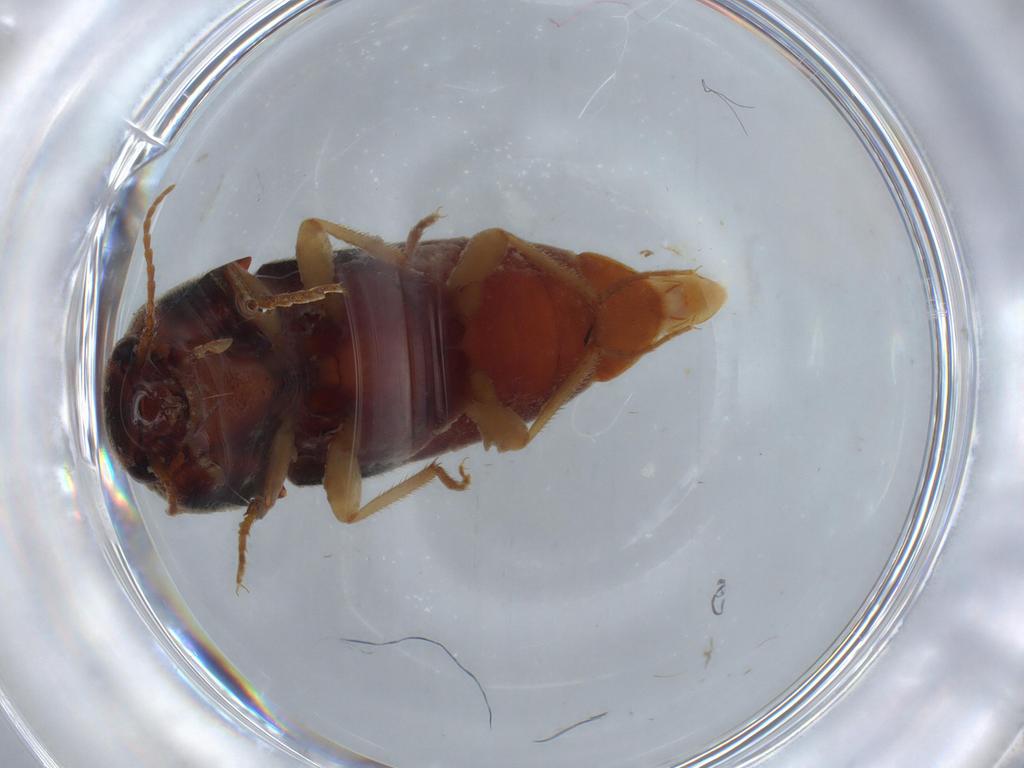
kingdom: Animalia
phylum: Arthropoda
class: Insecta
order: Coleoptera
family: Elateridae
